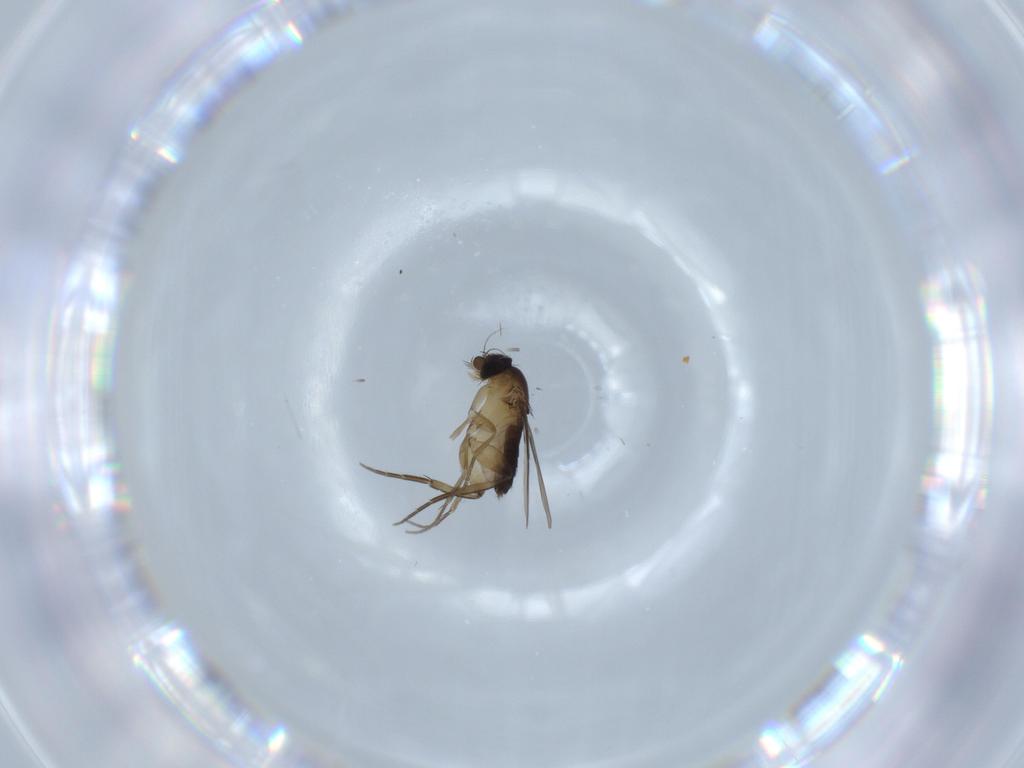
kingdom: Animalia
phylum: Arthropoda
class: Insecta
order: Diptera
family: Phoridae
